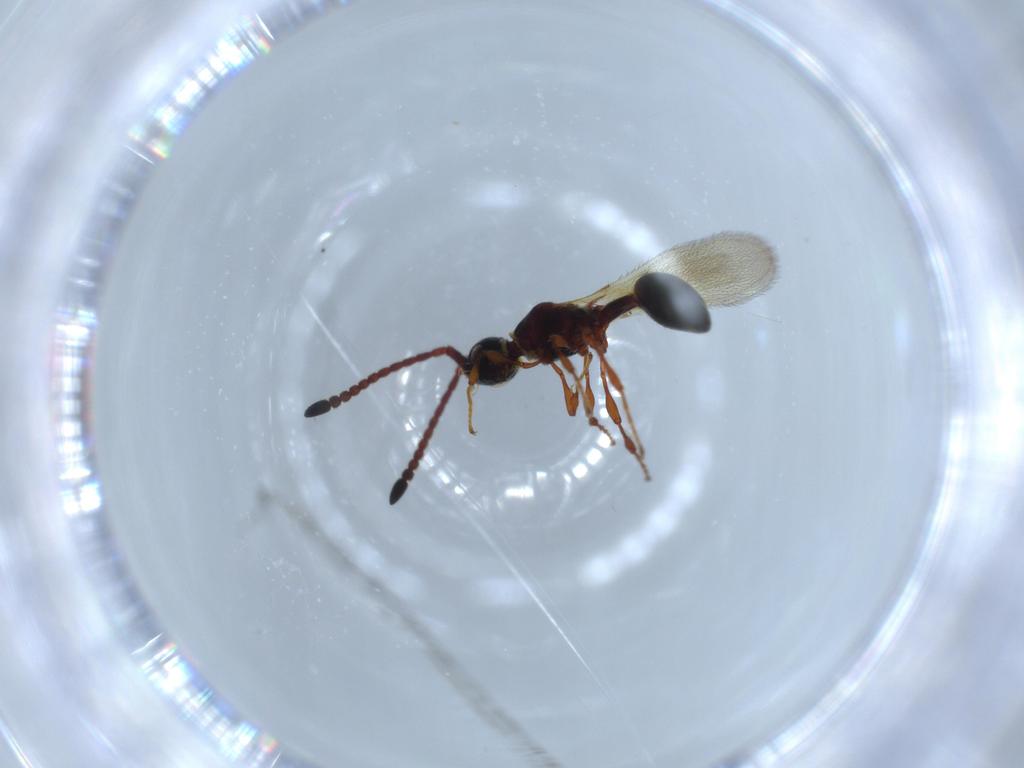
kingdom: Animalia
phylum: Arthropoda
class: Insecta
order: Hymenoptera
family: Diapriidae
